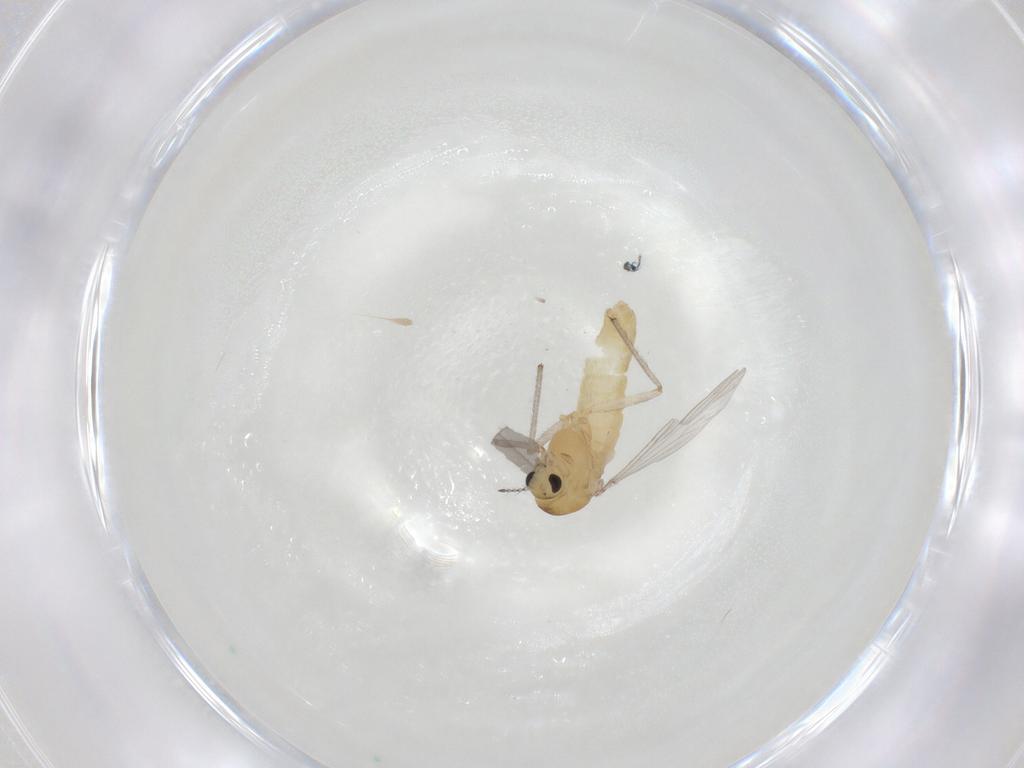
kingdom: Animalia
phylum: Arthropoda
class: Insecta
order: Diptera
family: Chironomidae
